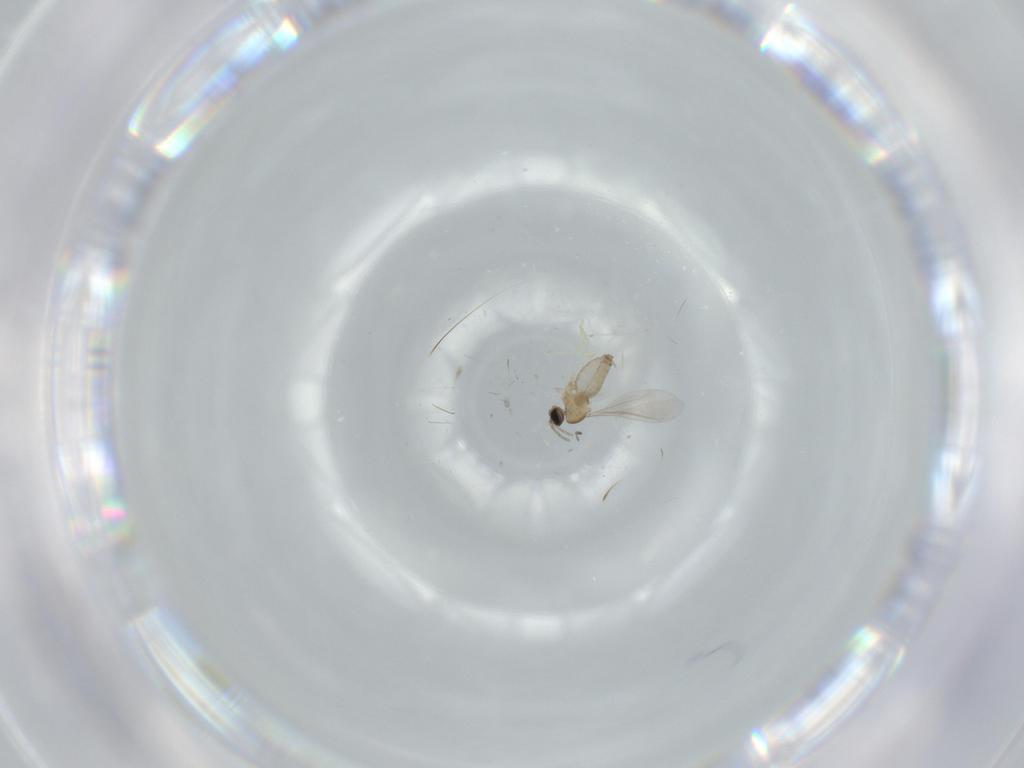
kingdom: Animalia
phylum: Arthropoda
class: Insecta
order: Diptera
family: Cecidomyiidae
